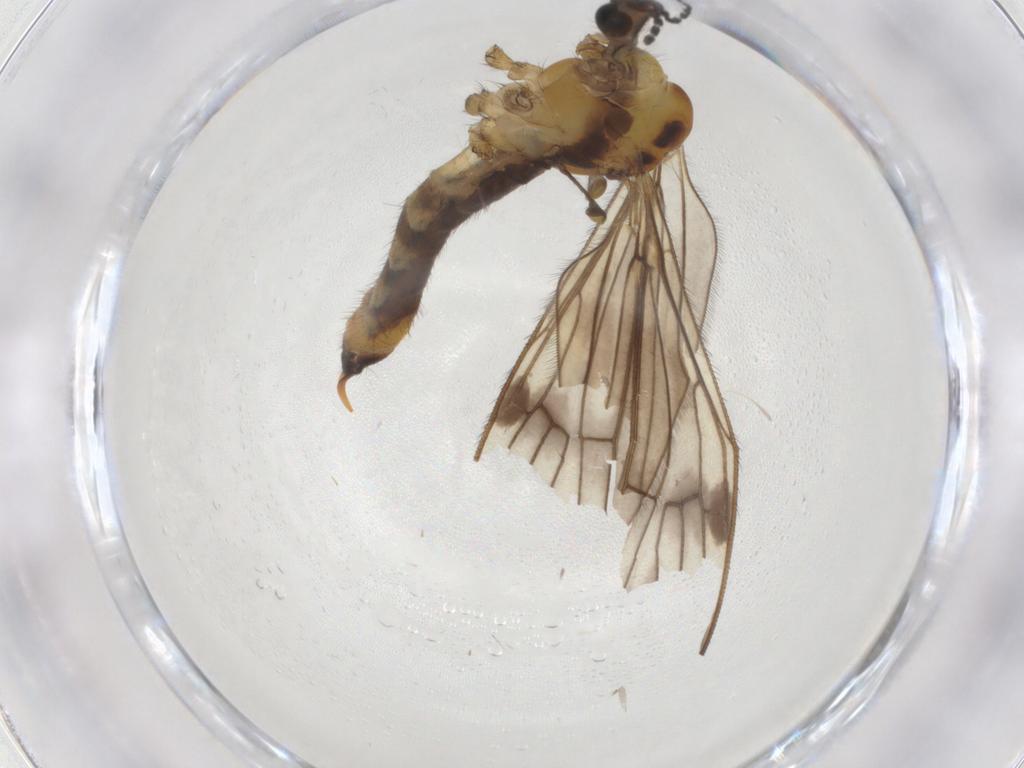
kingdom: Animalia
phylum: Arthropoda
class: Insecta
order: Diptera
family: Limoniidae
